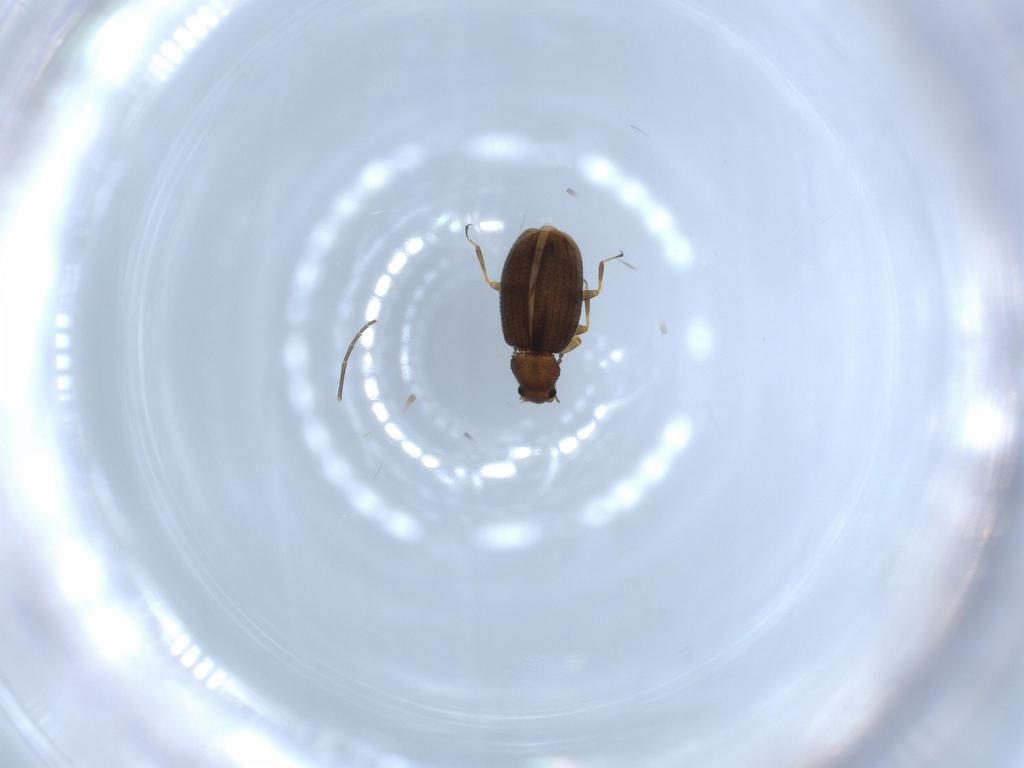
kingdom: Animalia
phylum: Arthropoda
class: Insecta
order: Coleoptera
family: Latridiidae
